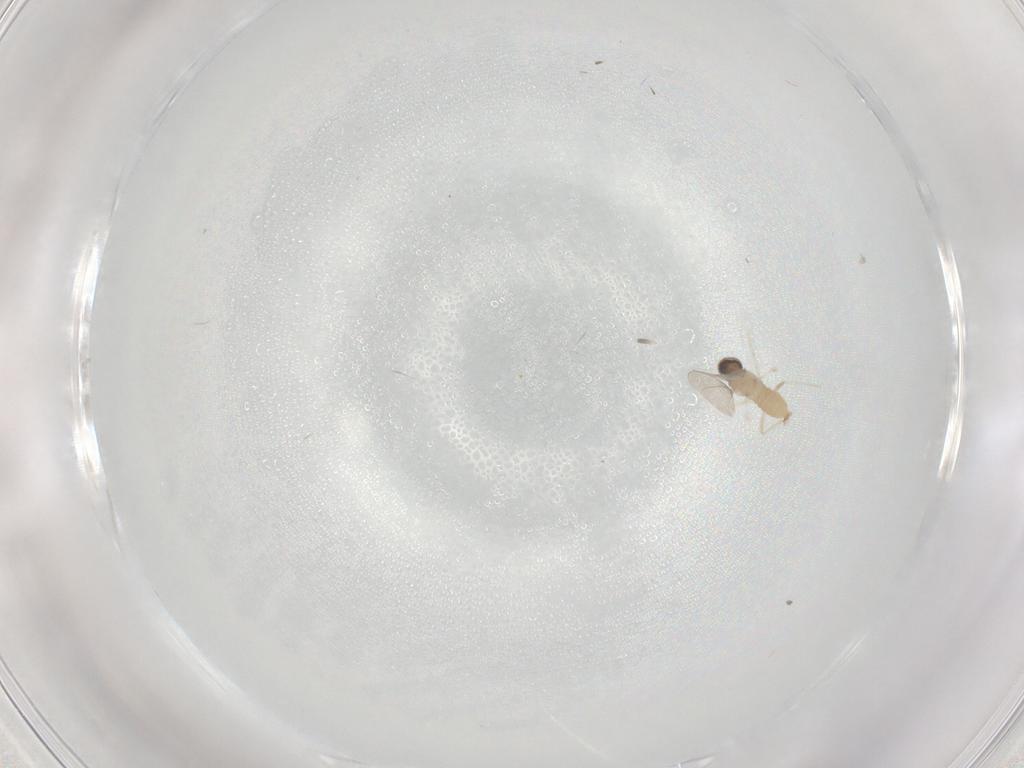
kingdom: Animalia
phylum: Arthropoda
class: Insecta
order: Diptera
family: Cecidomyiidae
